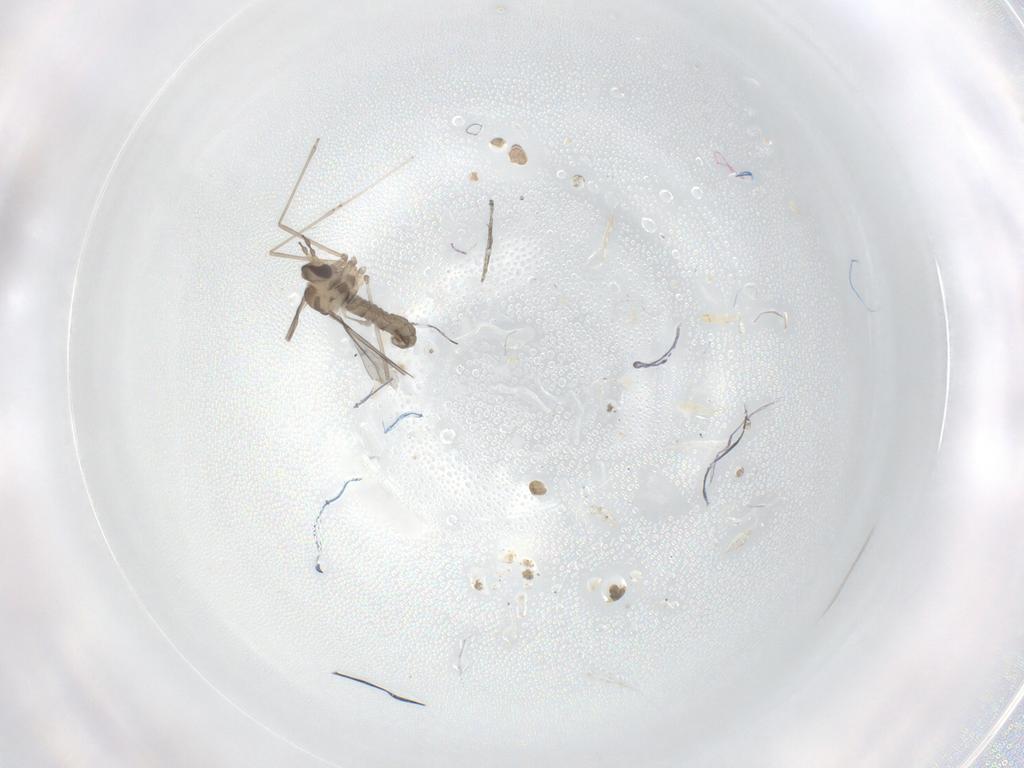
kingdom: Animalia
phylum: Arthropoda
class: Insecta
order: Diptera
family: Cecidomyiidae
